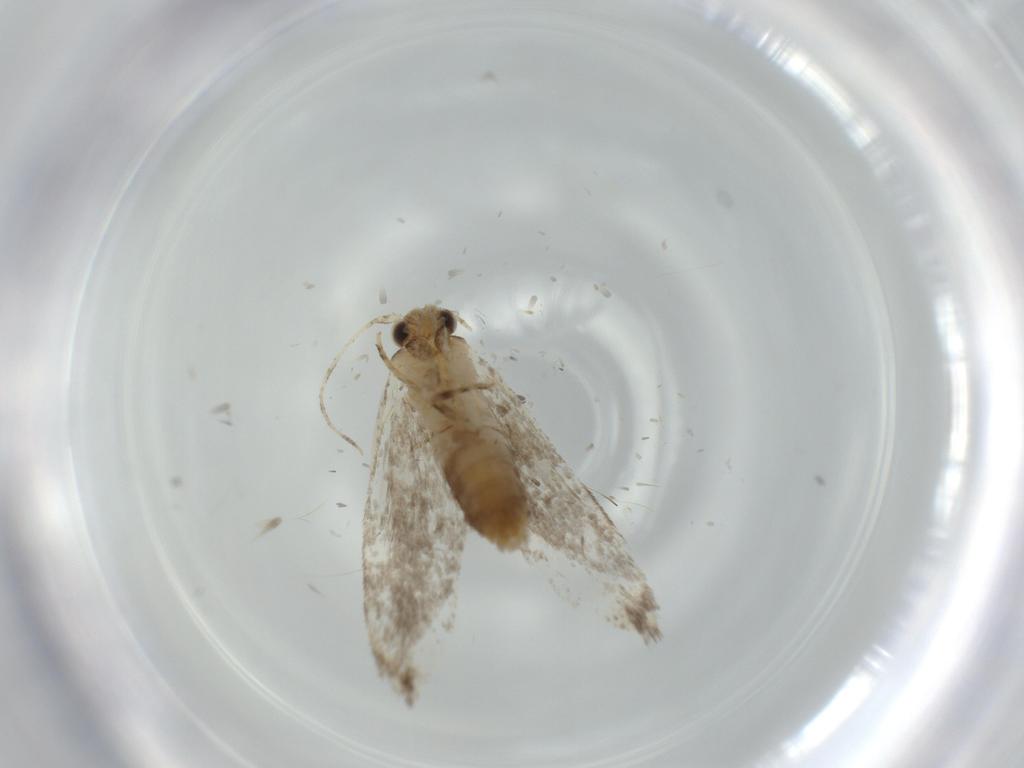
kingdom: Animalia
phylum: Arthropoda
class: Insecta
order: Lepidoptera
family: Tineidae
